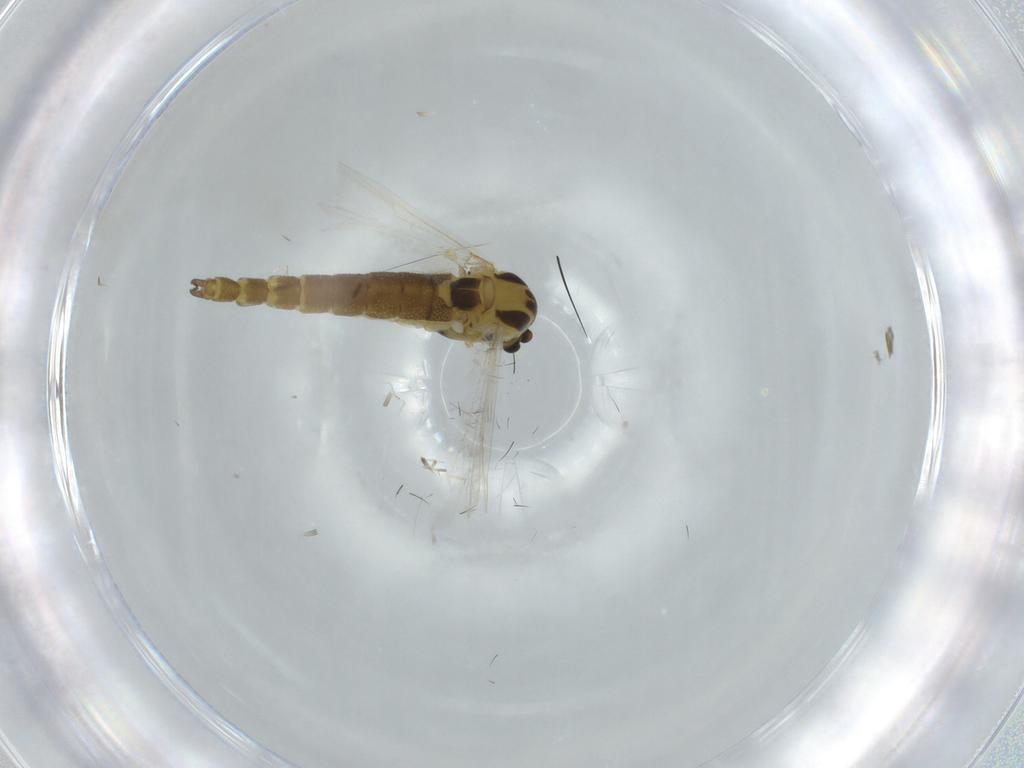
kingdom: Animalia
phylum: Arthropoda
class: Insecta
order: Diptera
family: Chironomidae
